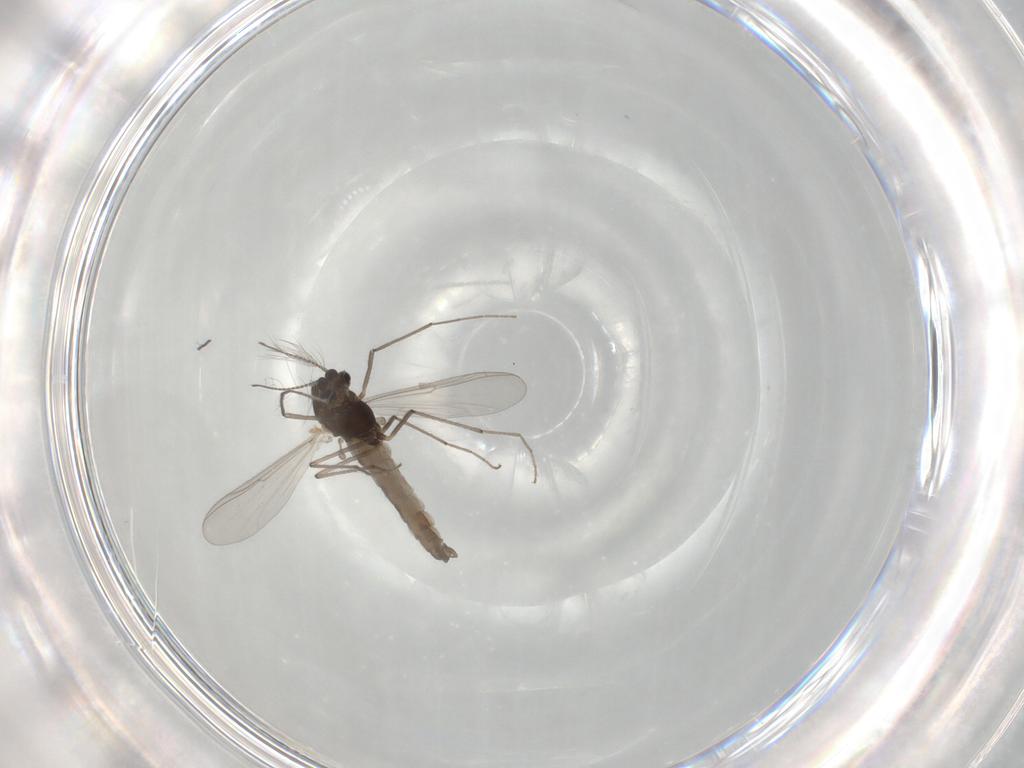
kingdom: Animalia
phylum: Arthropoda
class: Insecta
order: Diptera
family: Chironomidae
